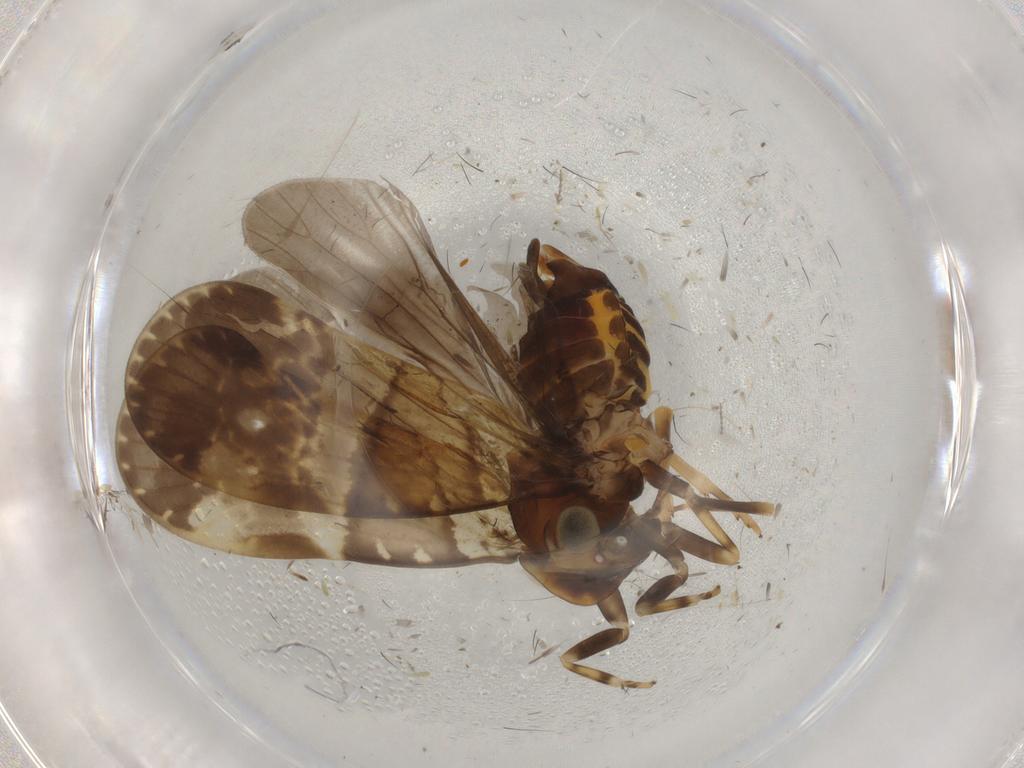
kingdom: Animalia
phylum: Arthropoda
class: Insecta
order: Hemiptera
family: Cixiidae
